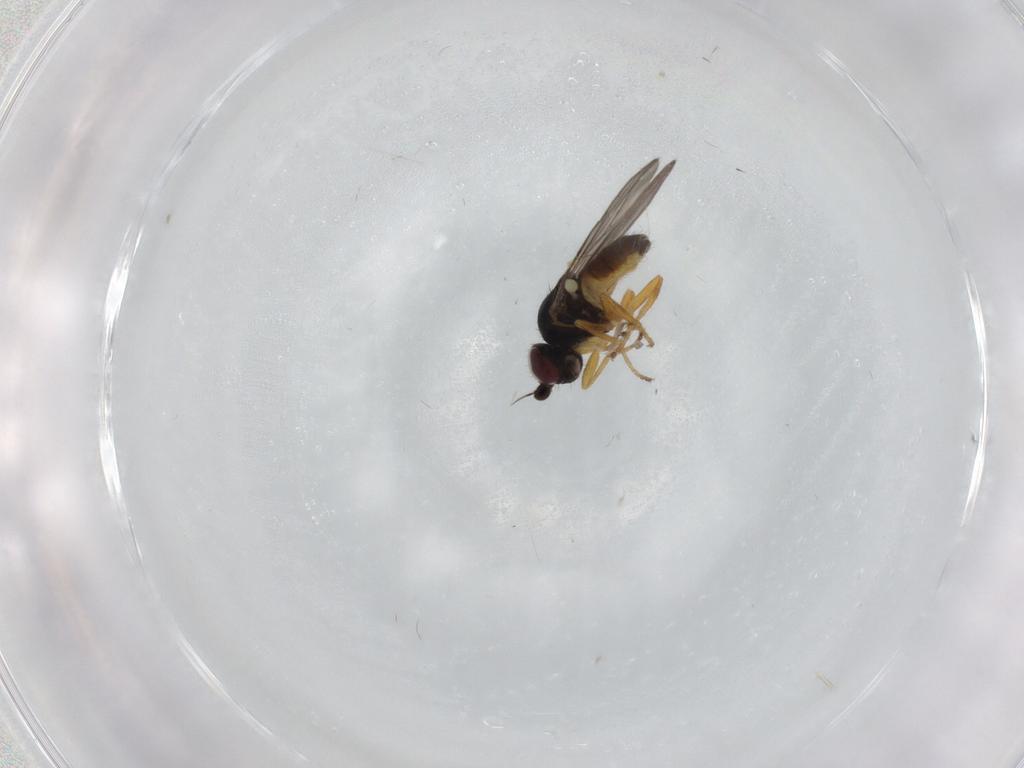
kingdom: Animalia
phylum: Arthropoda
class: Insecta
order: Diptera
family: Chloropidae
